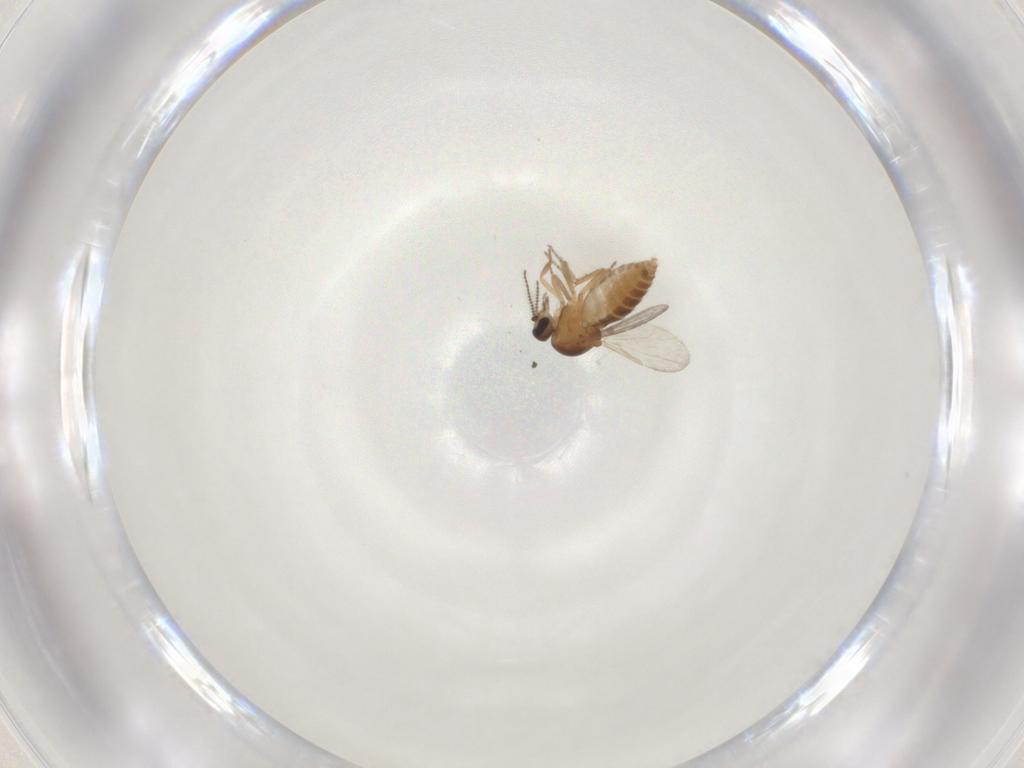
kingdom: Animalia
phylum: Arthropoda
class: Insecta
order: Diptera
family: Ceratopogonidae
